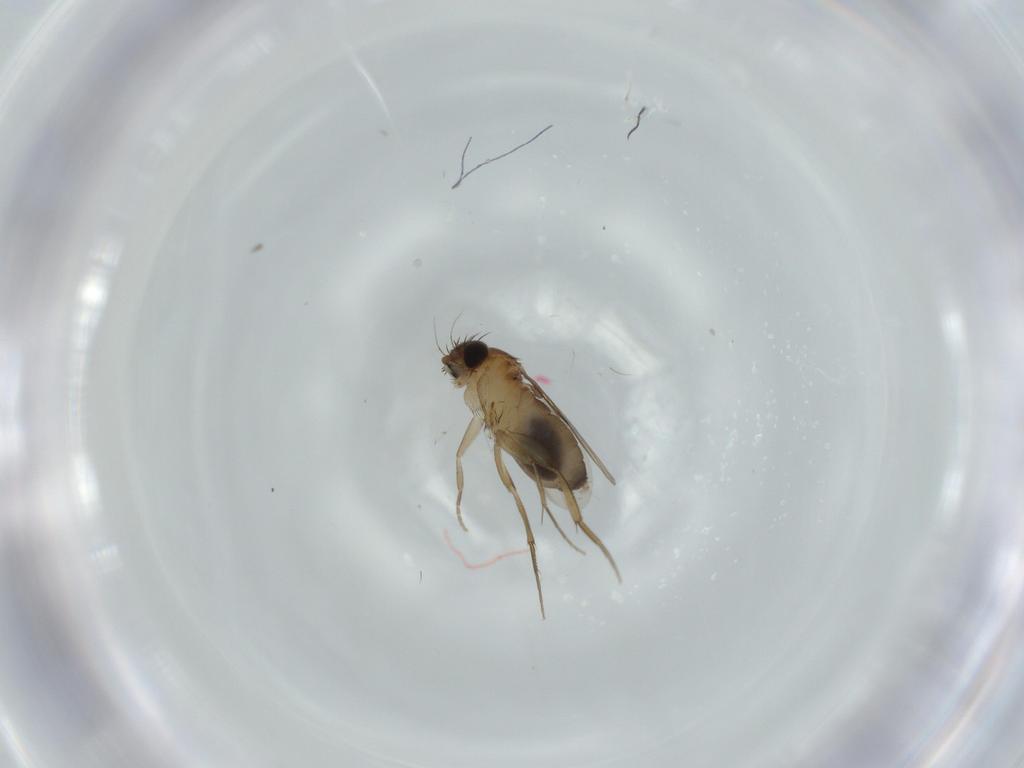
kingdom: Animalia
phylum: Arthropoda
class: Insecta
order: Diptera
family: Phoridae
